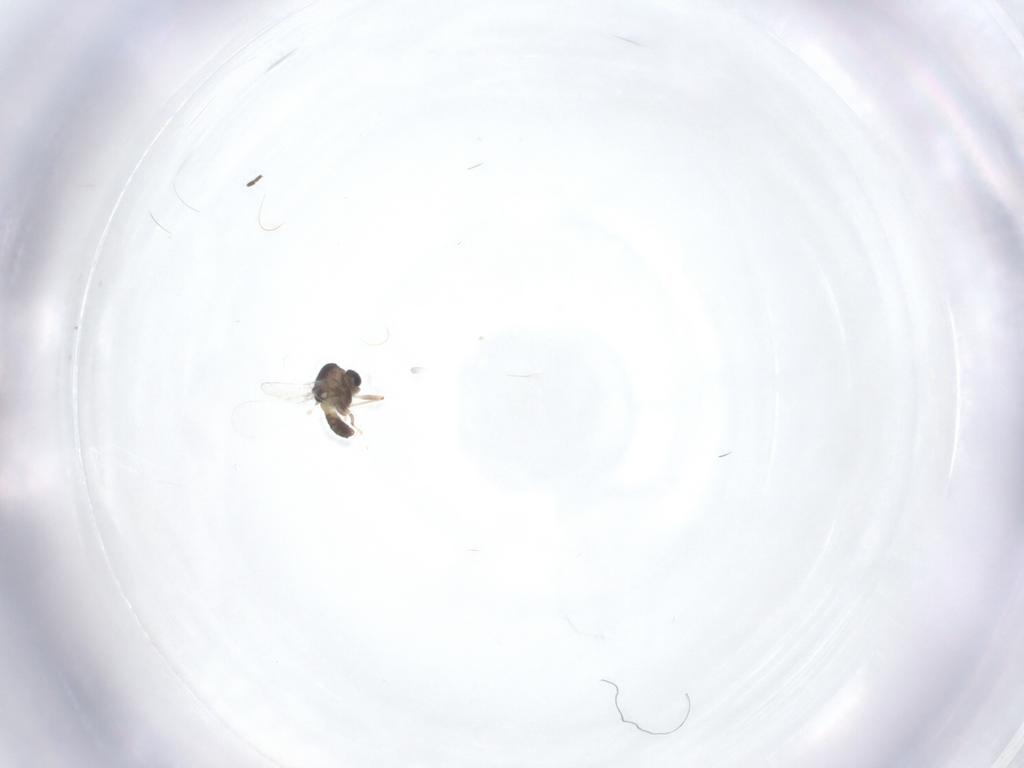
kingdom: Animalia
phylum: Arthropoda
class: Insecta
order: Diptera
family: Chironomidae
